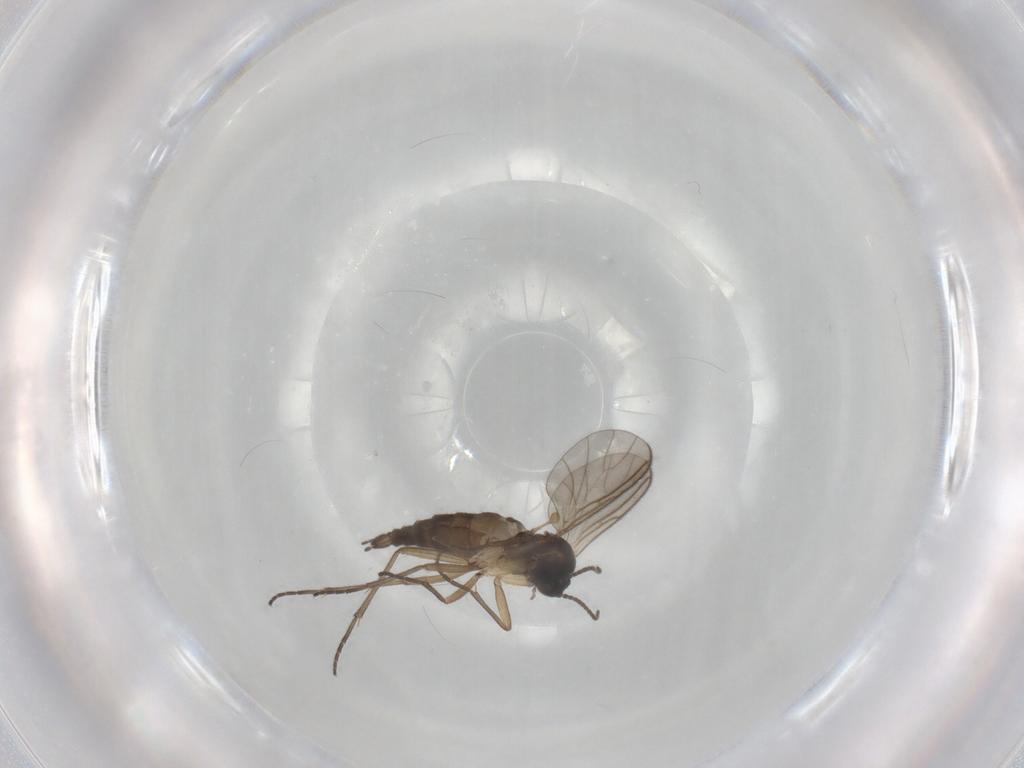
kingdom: Animalia
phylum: Arthropoda
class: Insecta
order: Diptera
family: Sciaridae
